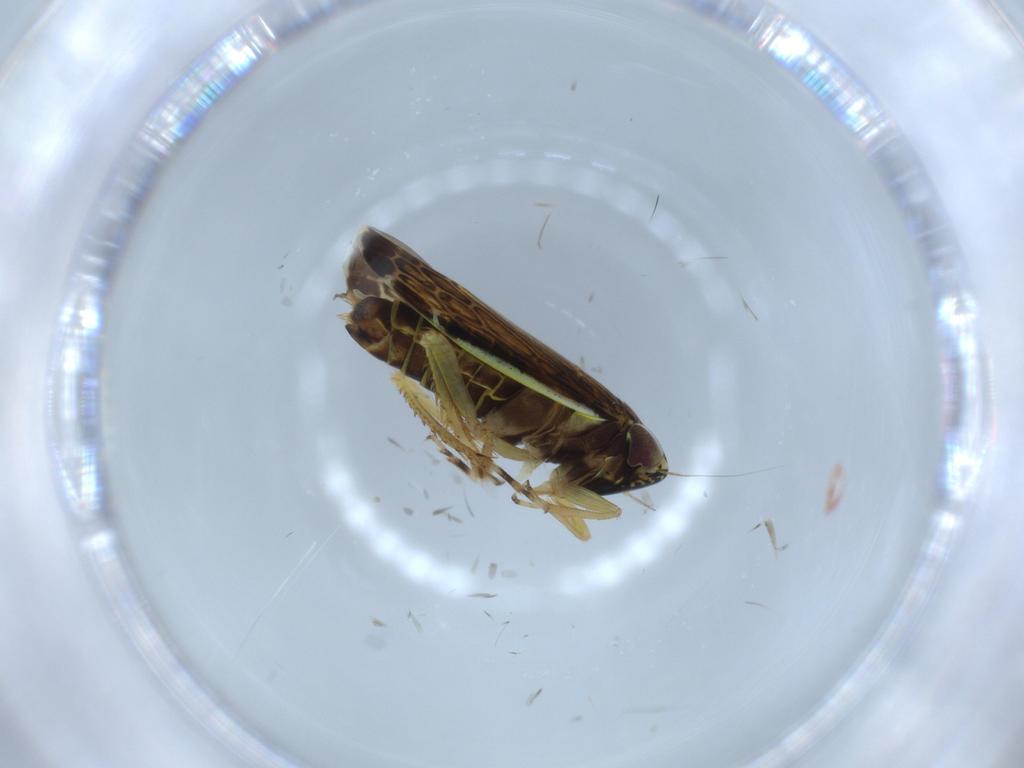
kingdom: Animalia
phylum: Arthropoda
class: Insecta
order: Hemiptera
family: Cicadellidae
